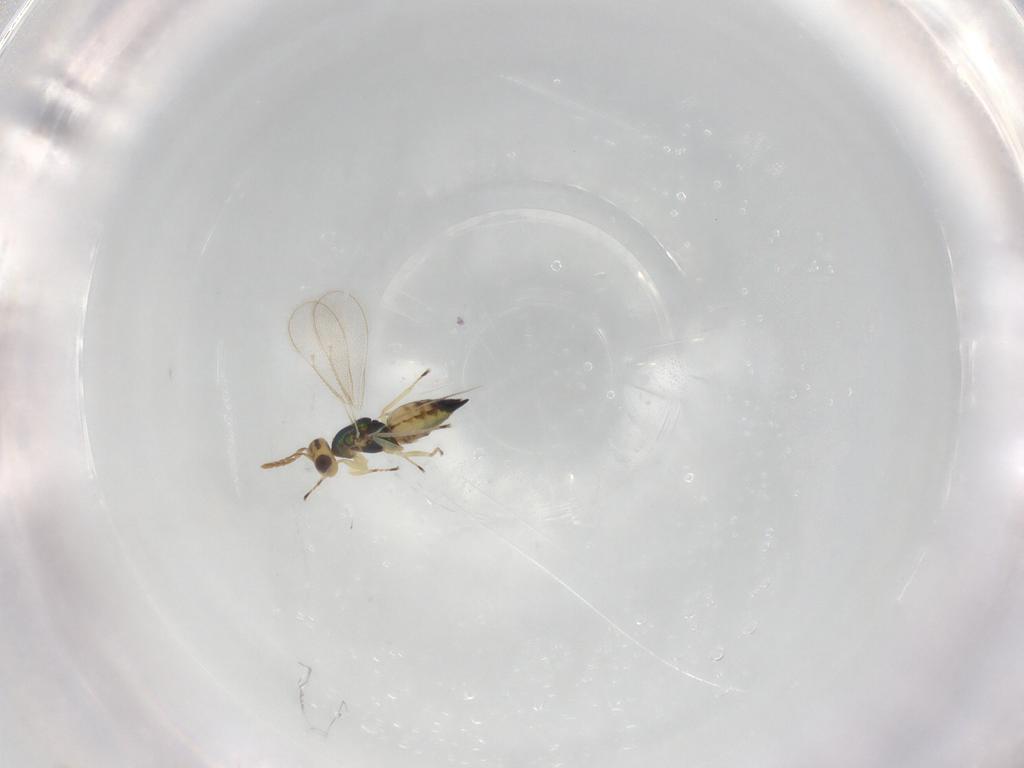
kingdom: Animalia
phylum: Arthropoda
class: Insecta
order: Hymenoptera
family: Eulophidae
